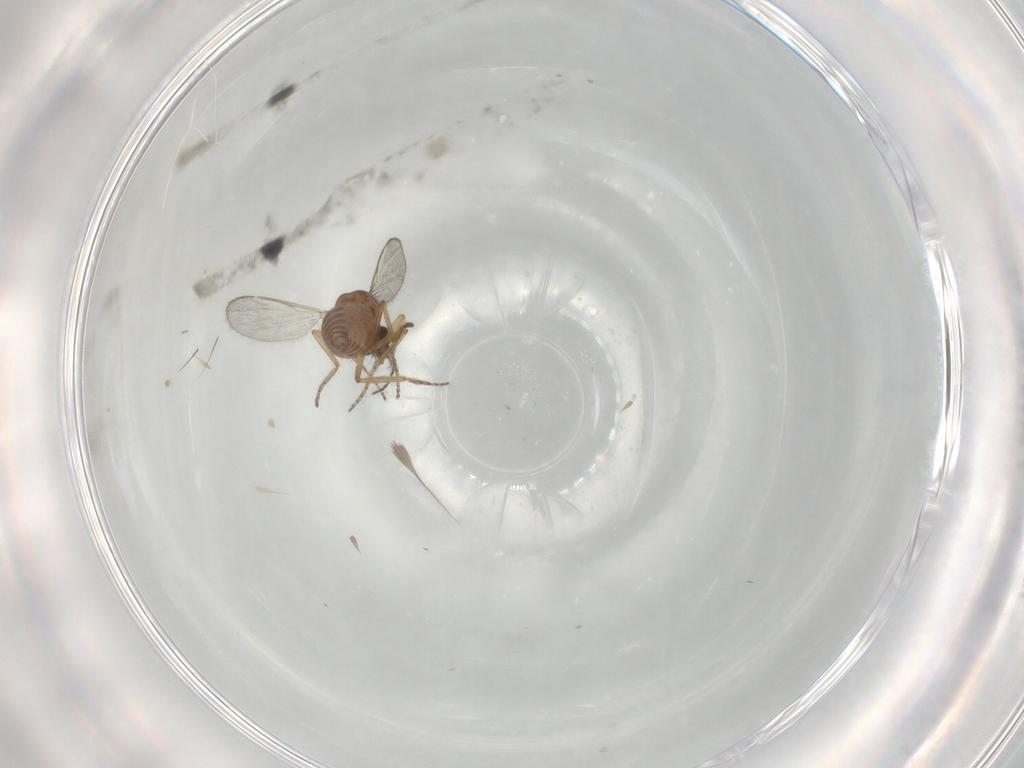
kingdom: Animalia
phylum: Arthropoda
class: Insecta
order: Diptera
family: Ceratopogonidae
